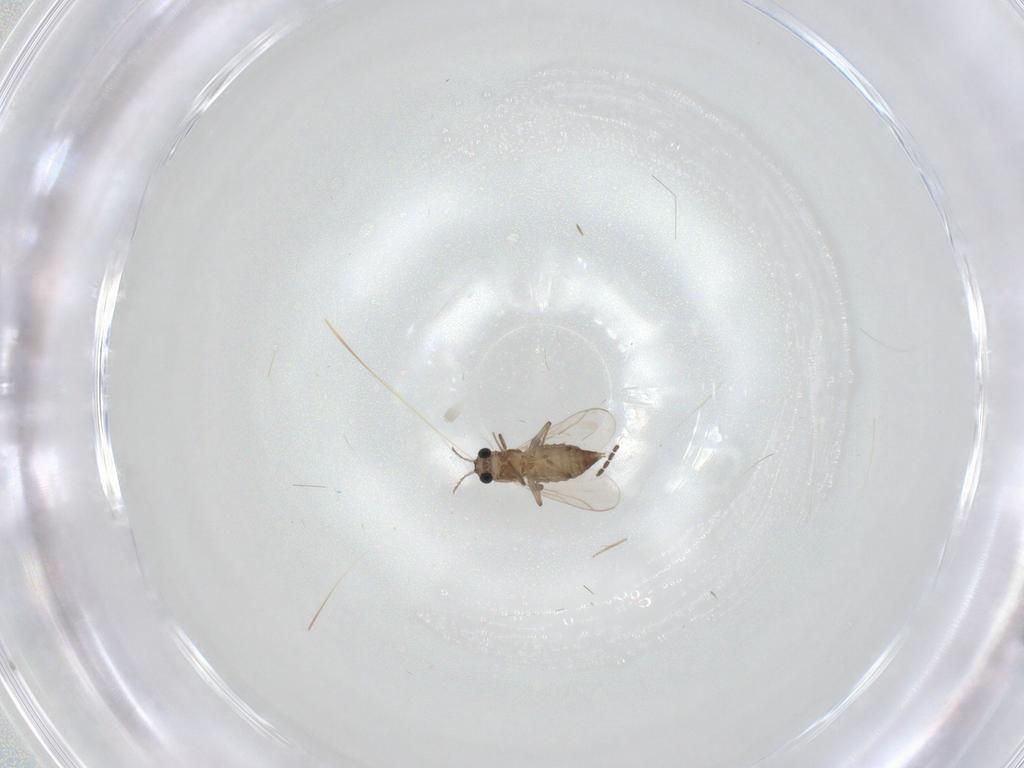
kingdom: Animalia
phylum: Arthropoda
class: Insecta
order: Diptera
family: Chironomidae
